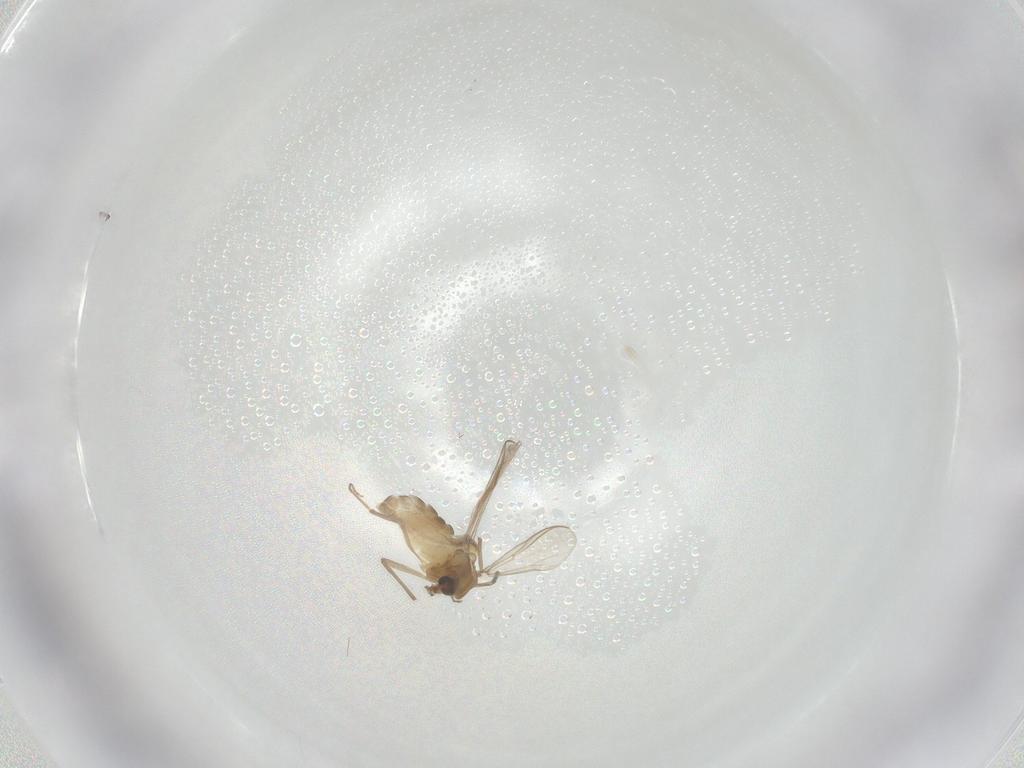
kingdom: Animalia
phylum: Arthropoda
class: Insecta
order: Diptera
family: Chironomidae
